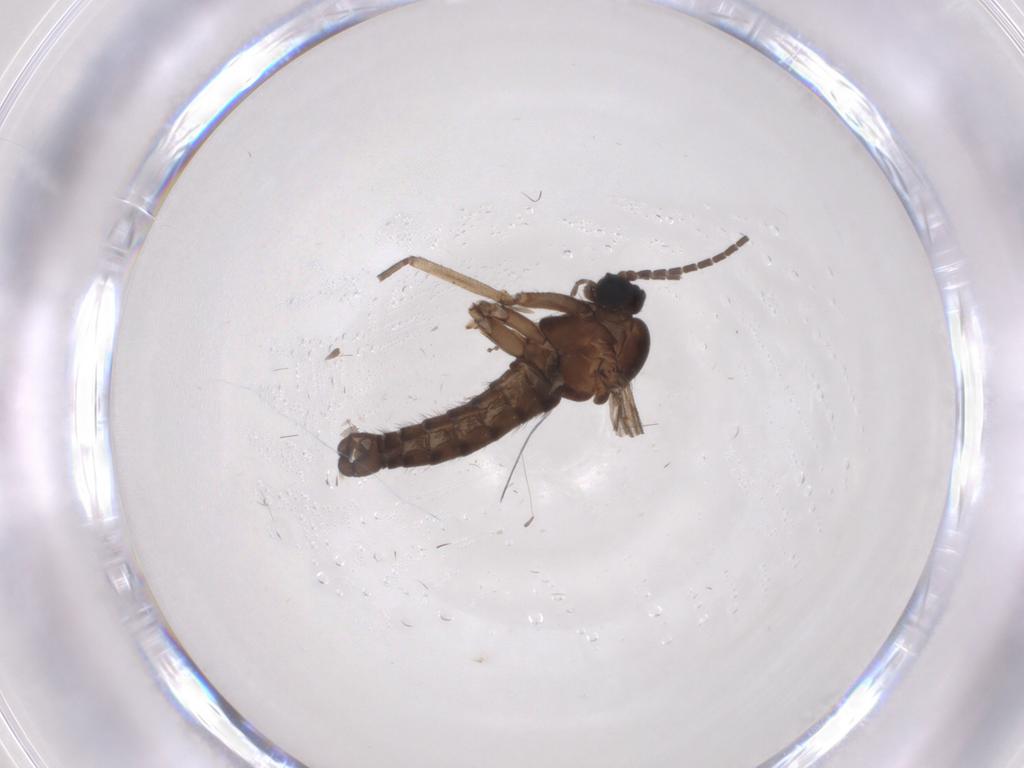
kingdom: Animalia
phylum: Arthropoda
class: Insecta
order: Diptera
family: Sciaridae
